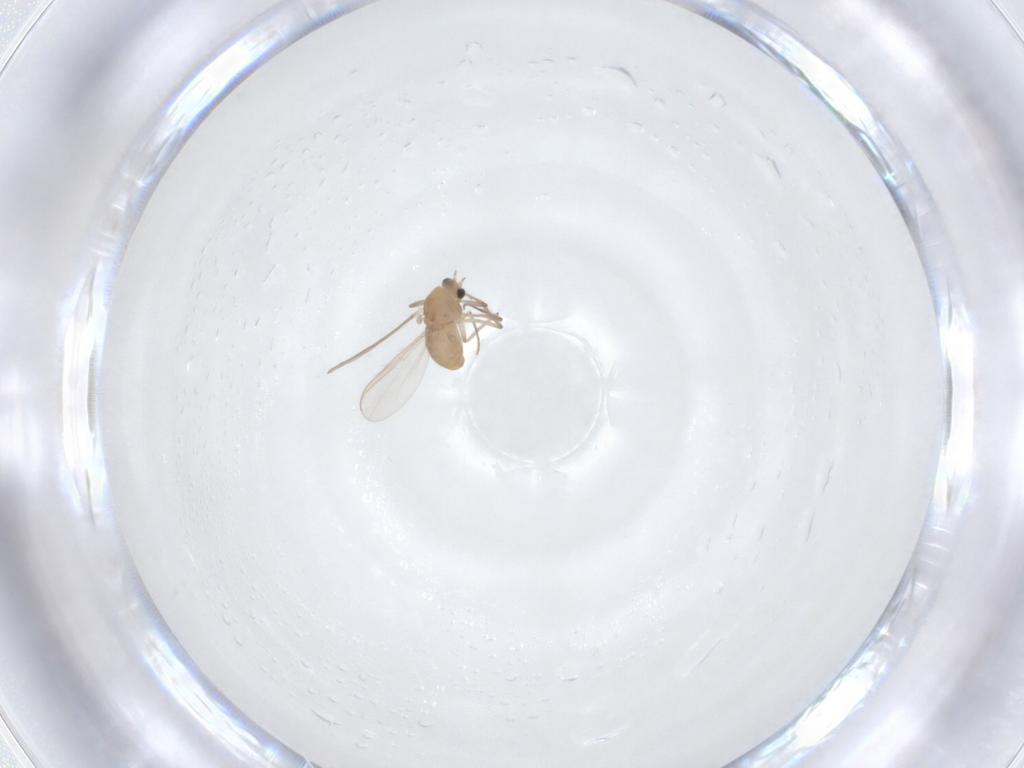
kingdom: Animalia
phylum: Arthropoda
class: Insecta
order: Diptera
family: Chironomidae
